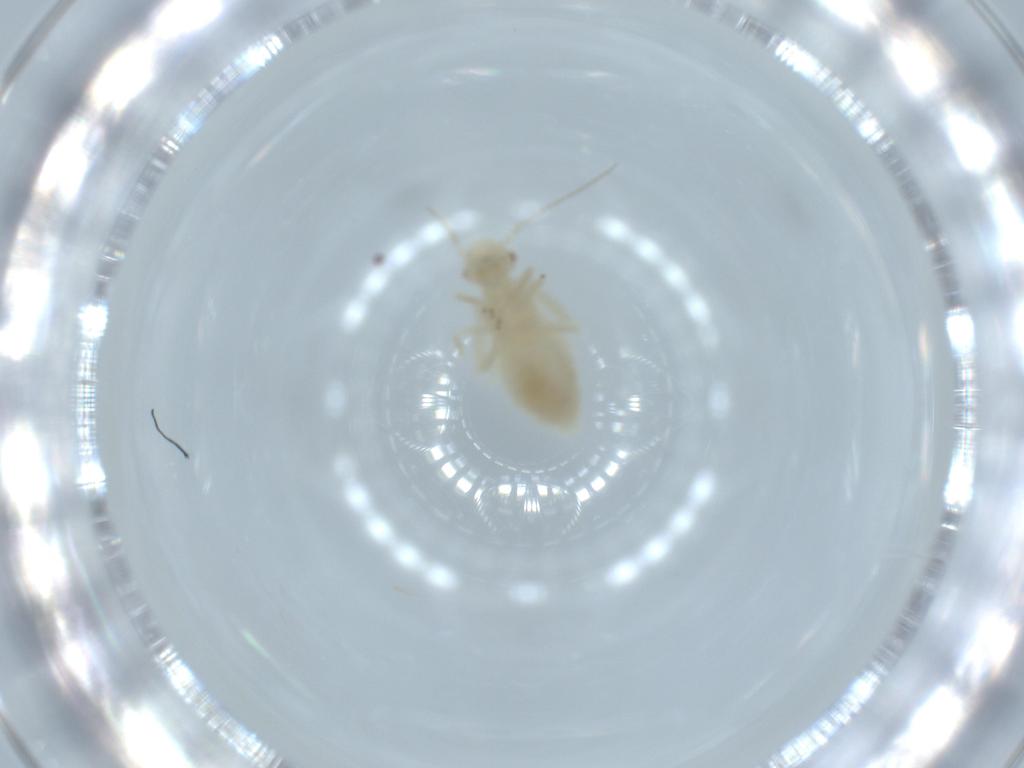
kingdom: Animalia
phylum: Arthropoda
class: Insecta
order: Psocodea
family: Caeciliusidae
